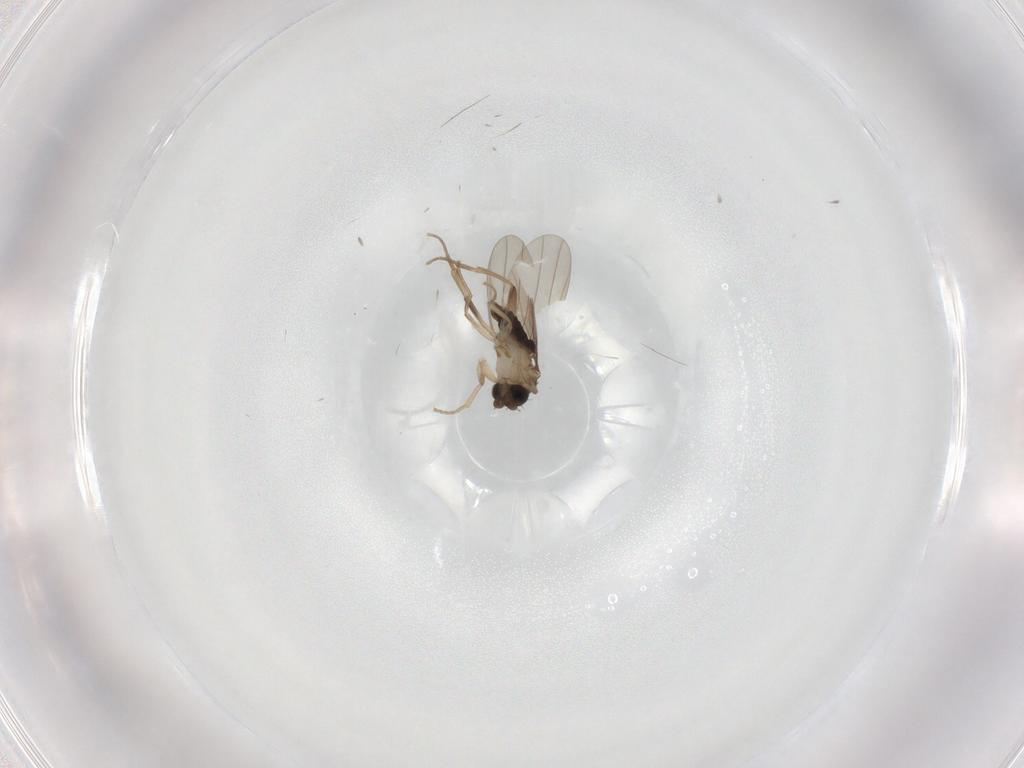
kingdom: Animalia
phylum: Arthropoda
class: Insecta
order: Diptera
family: Phoridae
